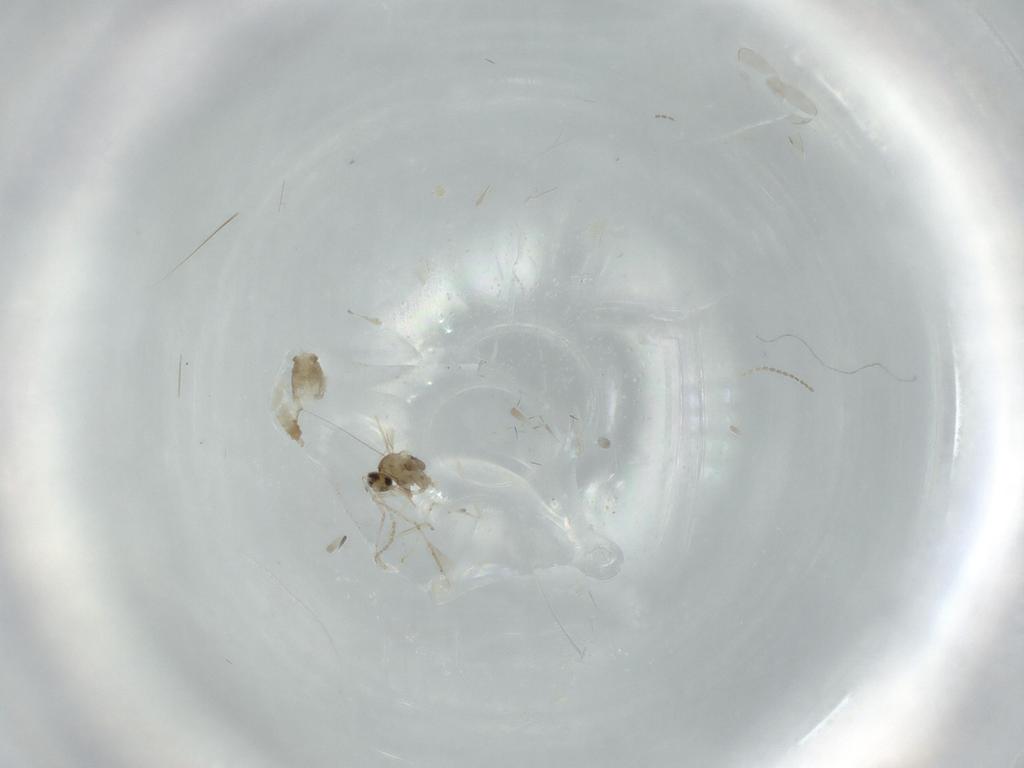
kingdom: Animalia
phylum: Arthropoda
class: Insecta
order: Diptera
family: Cecidomyiidae
